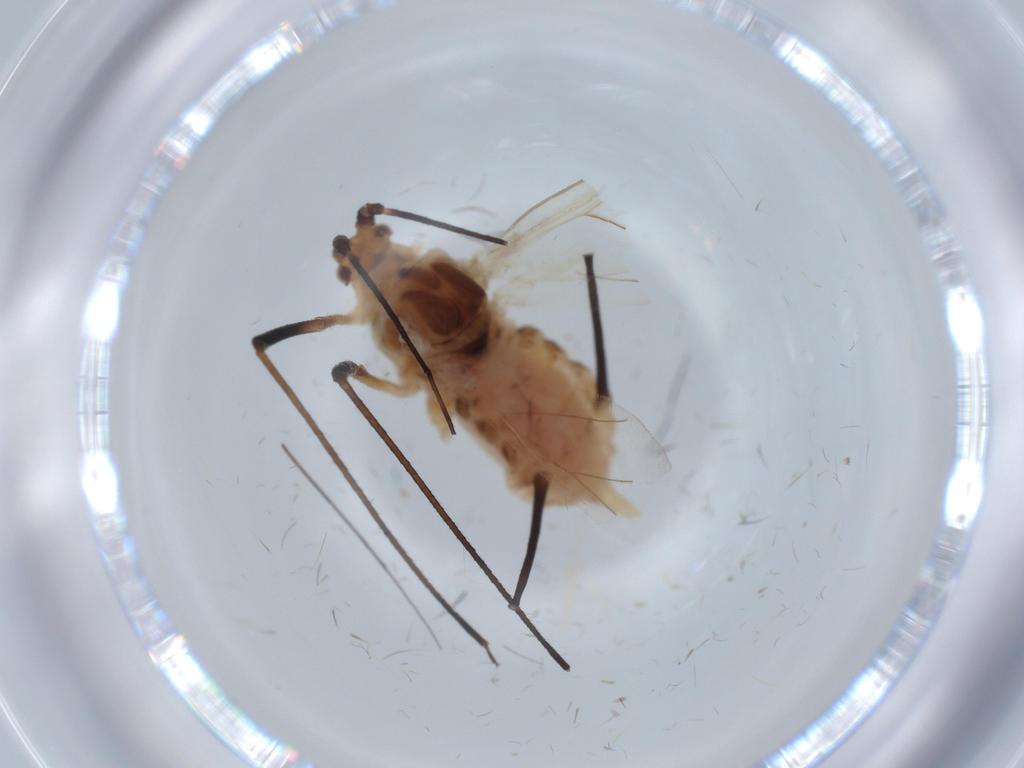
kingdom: Animalia
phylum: Arthropoda
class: Insecta
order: Hemiptera
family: Aphididae
